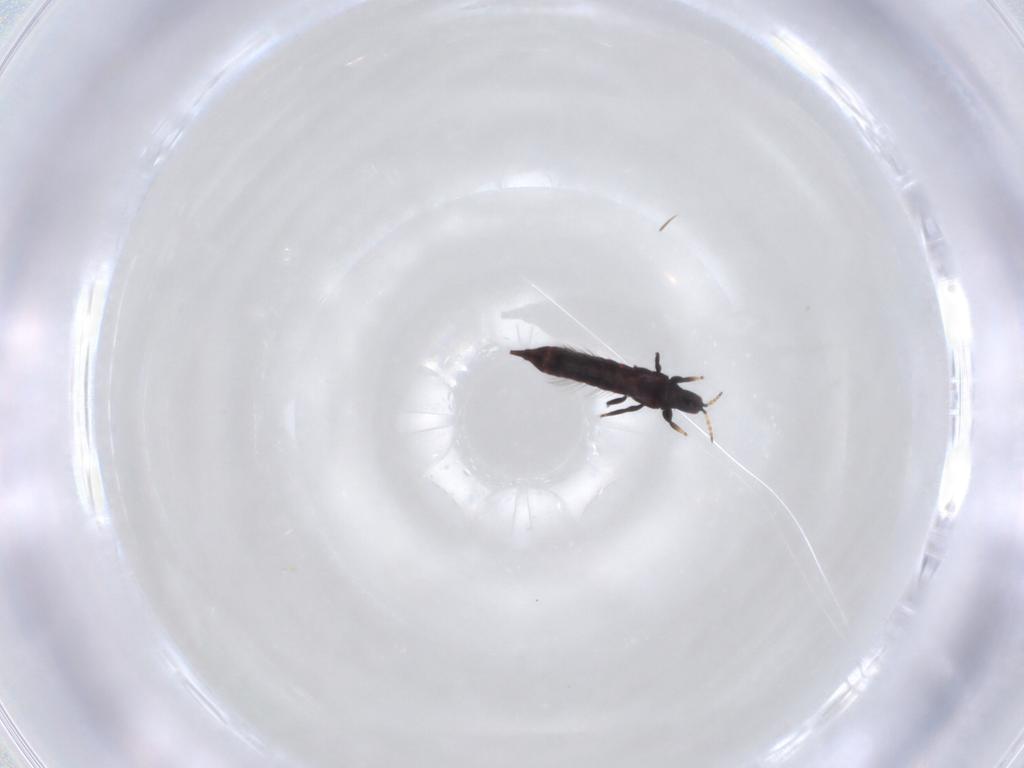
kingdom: Animalia
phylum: Arthropoda
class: Insecta
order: Thysanoptera
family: Phlaeothripidae
